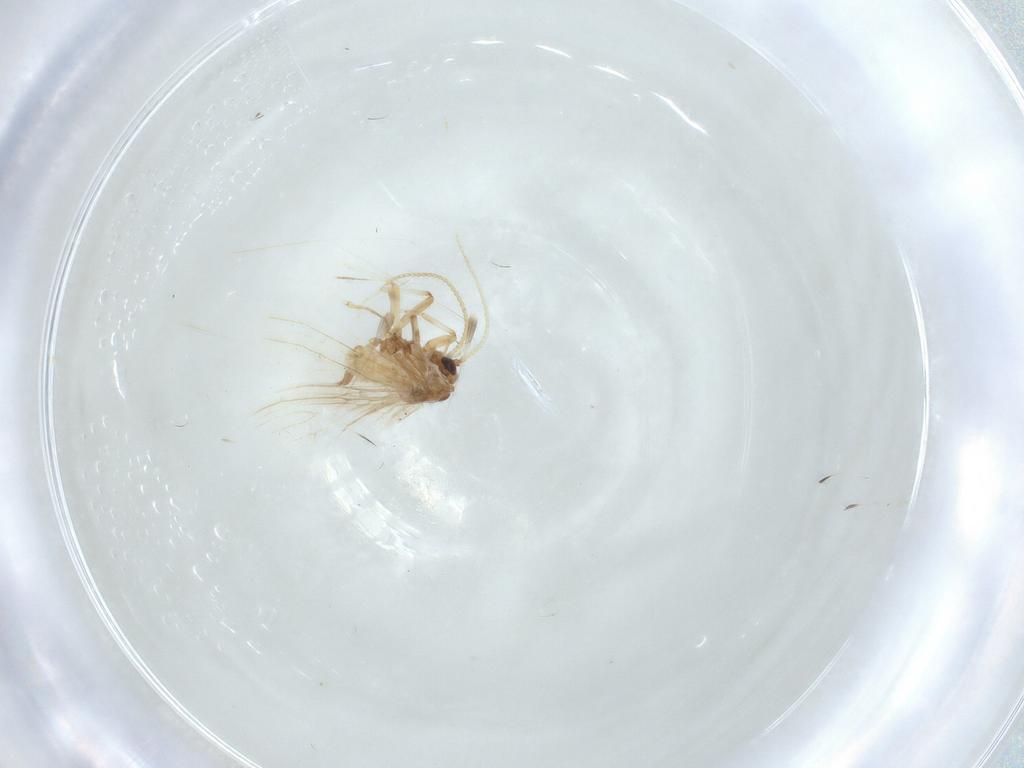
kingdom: Animalia
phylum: Arthropoda
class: Insecta
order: Neuroptera
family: Coniopterygidae
